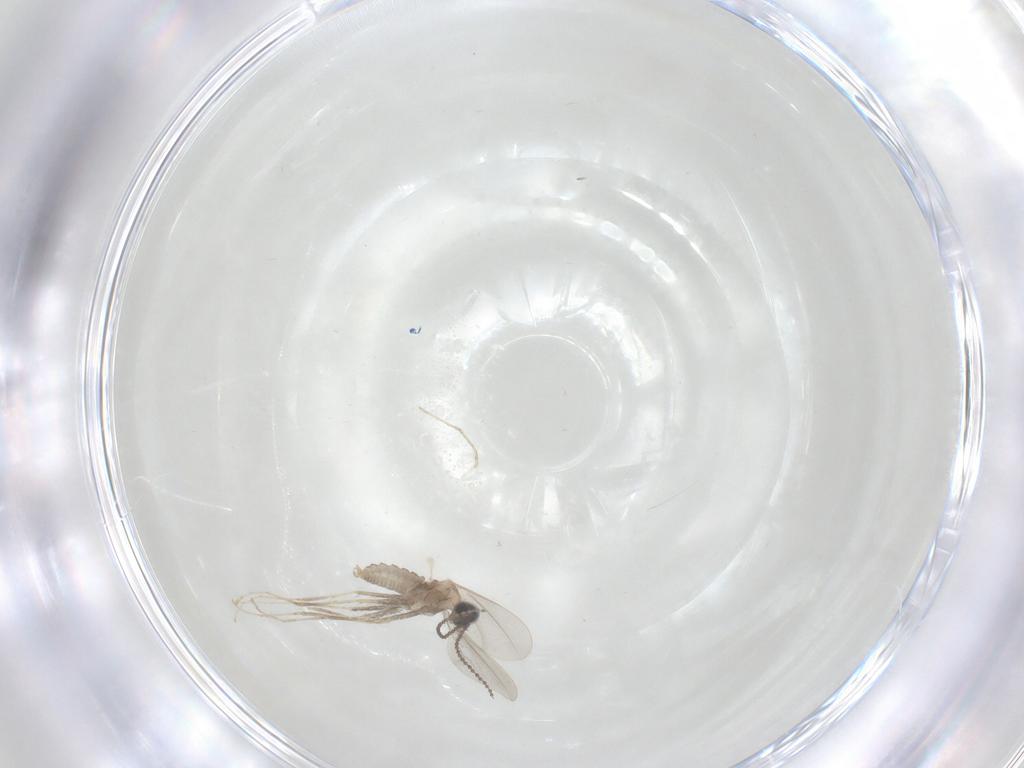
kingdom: Animalia
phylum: Arthropoda
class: Insecta
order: Diptera
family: Cecidomyiidae
